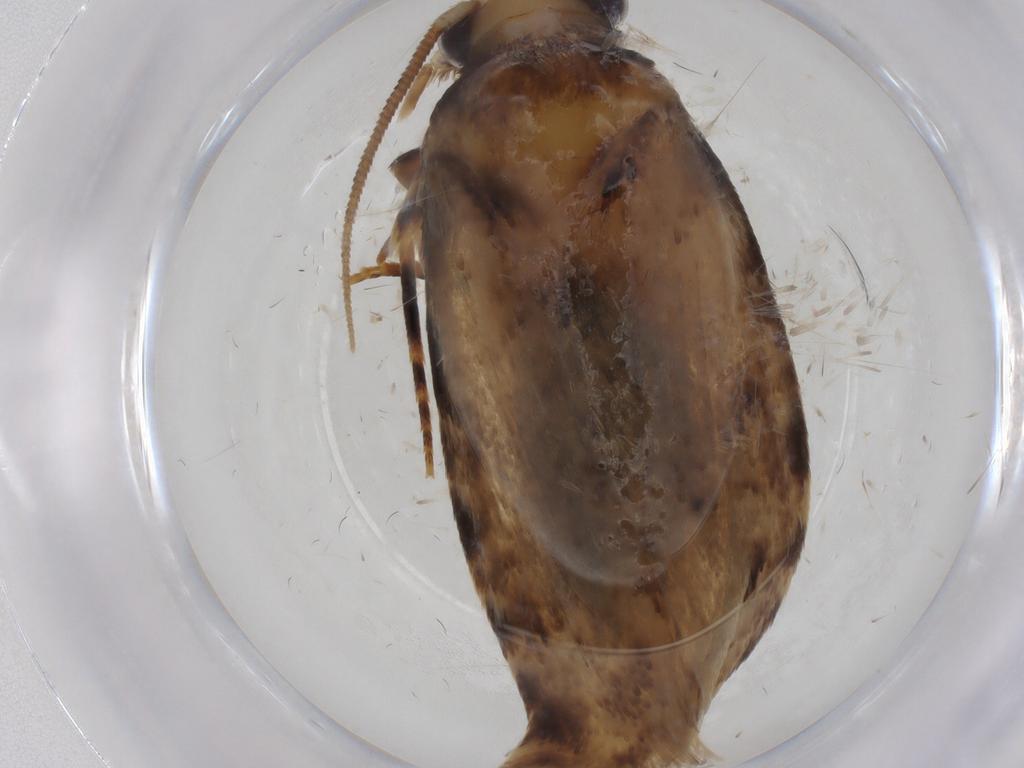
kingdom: Animalia
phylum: Arthropoda
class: Insecta
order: Lepidoptera
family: Nepticulidae
